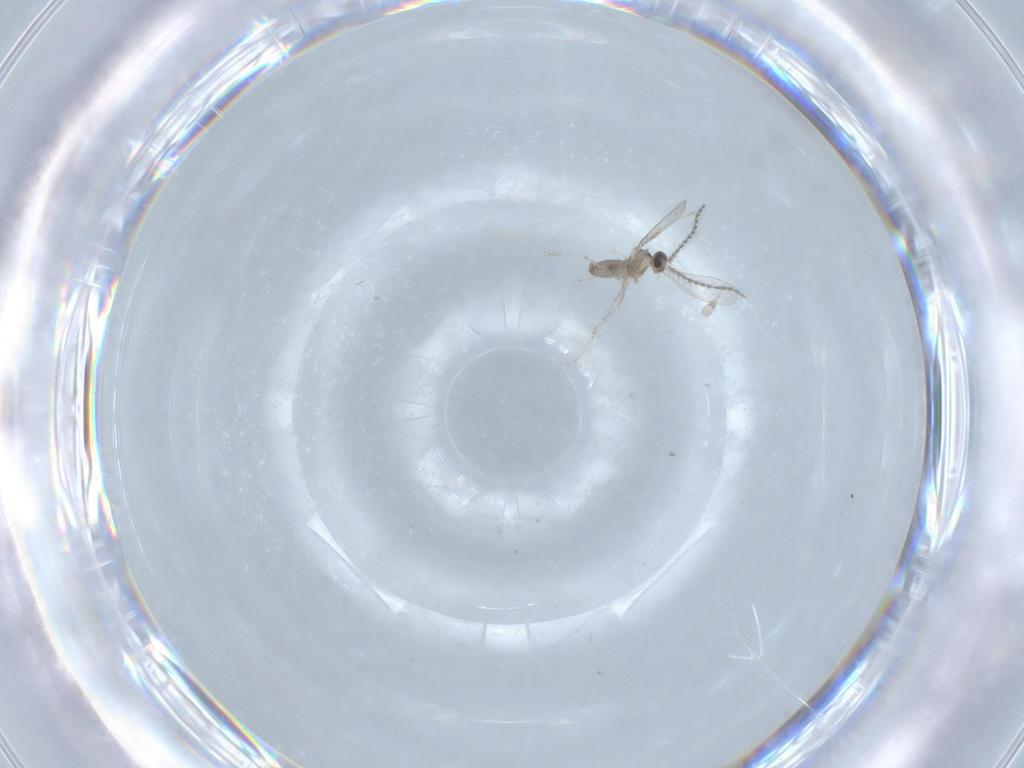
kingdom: Animalia
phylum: Arthropoda
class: Insecta
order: Diptera
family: Chironomidae
